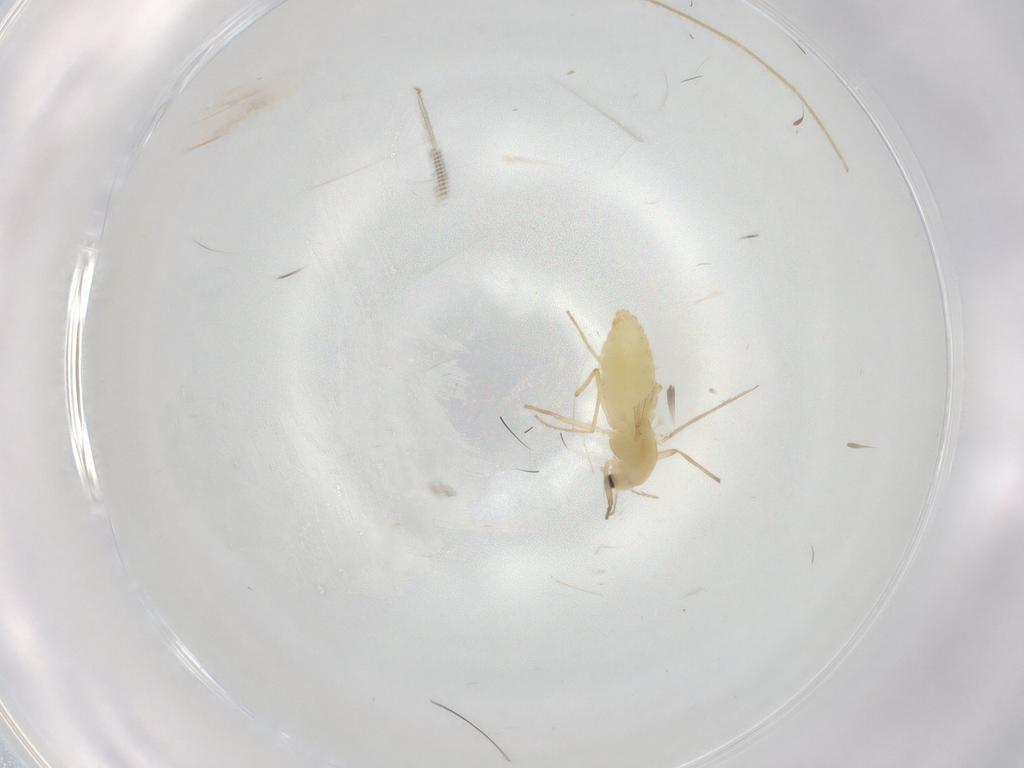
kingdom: Animalia
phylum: Arthropoda
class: Insecta
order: Diptera
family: Chironomidae
